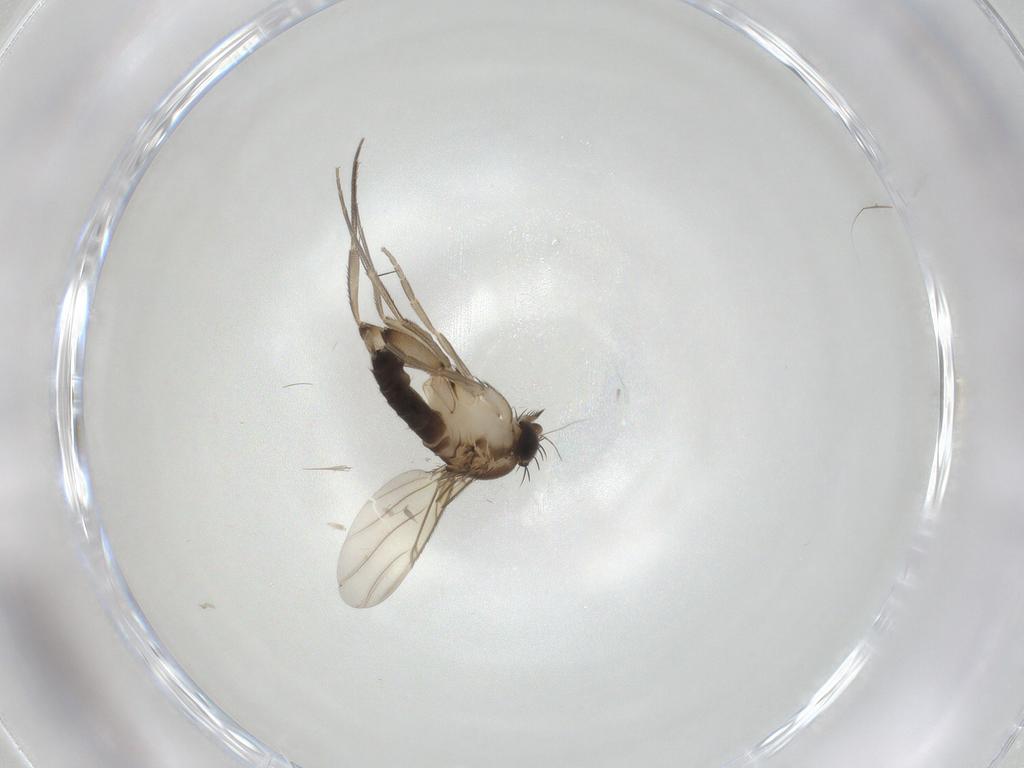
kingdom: Animalia
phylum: Arthropoda
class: Insecta
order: Diptera
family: Phoridae
